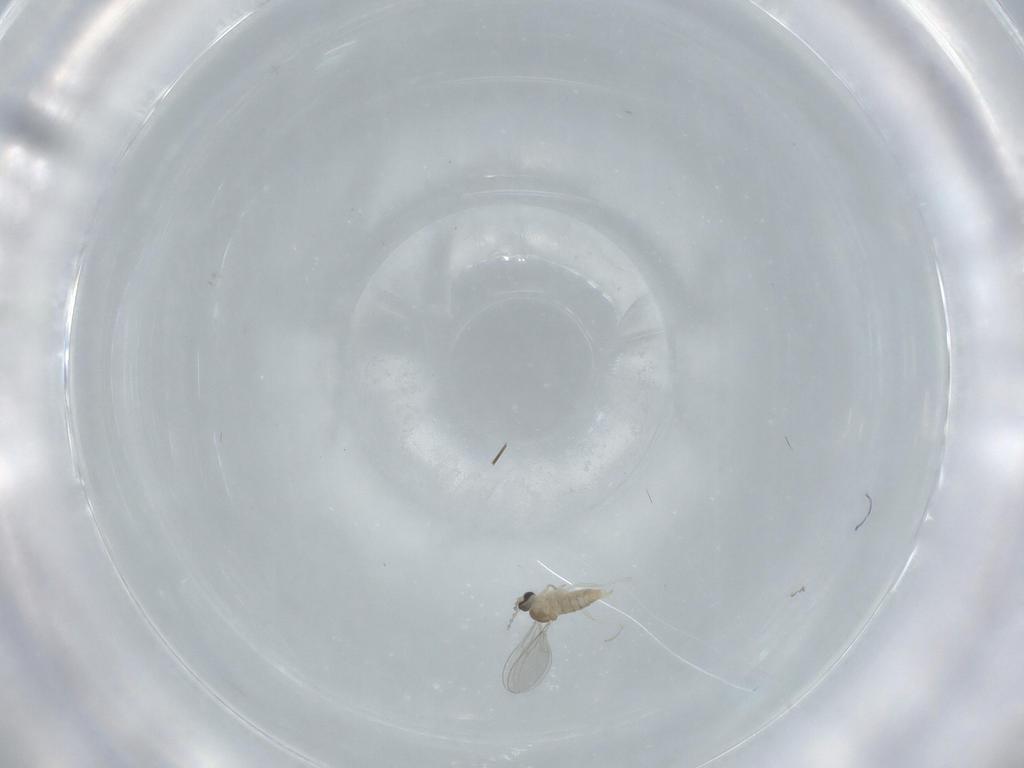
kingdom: Animalia
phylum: Arthropoda
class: Insecta
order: Diptera
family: Cecidomyiidae
